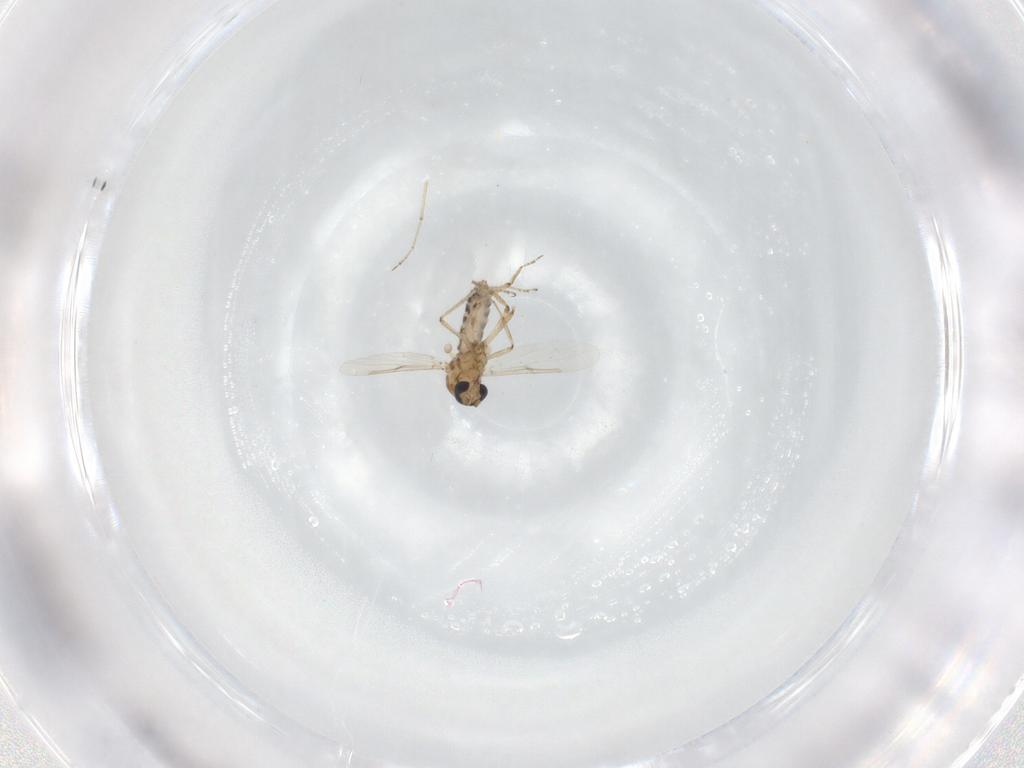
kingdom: Animalia
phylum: Arthropoda
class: Insecta
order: Diptera
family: Ceratopogonidae
